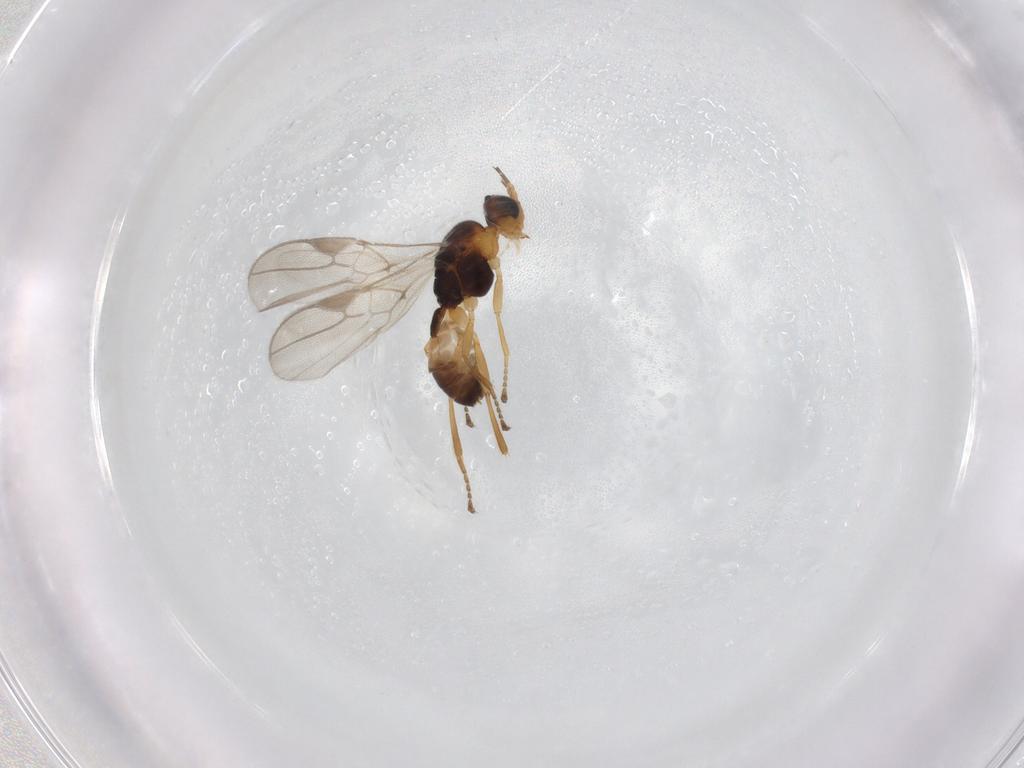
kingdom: Animalia
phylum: Arthropoda
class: Insecta
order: Hymenoptera
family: Braconidae
